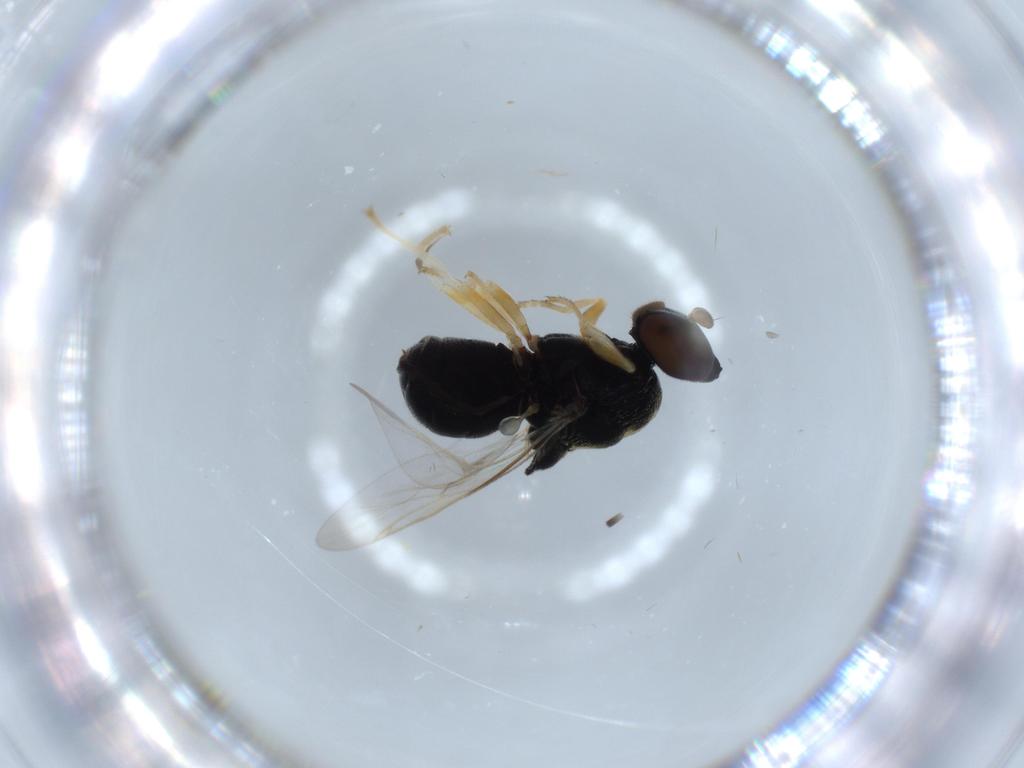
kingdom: Animalia
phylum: Arthropoda
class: Insecta
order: Diptera
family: Stratiomyidae
